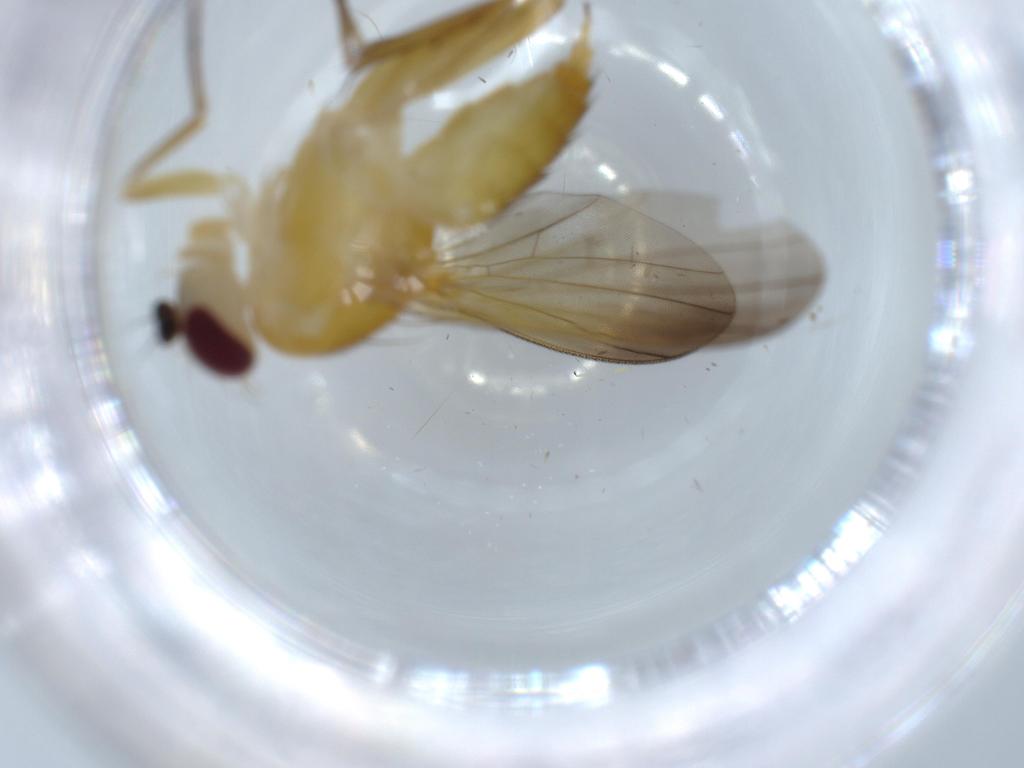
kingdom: Animalia
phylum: Arthropoda
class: Insecta
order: Diptera
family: Clusiidae
